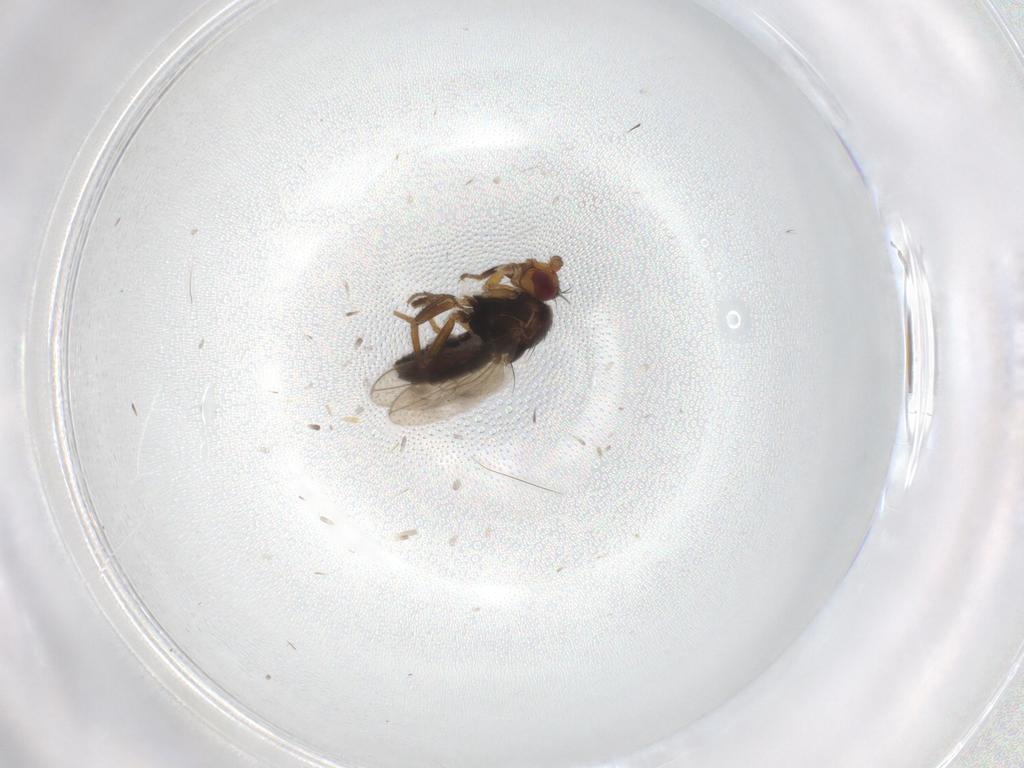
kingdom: Animalia
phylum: Arthropoda
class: Insecta
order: Diptera
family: Sphaeroceridae
